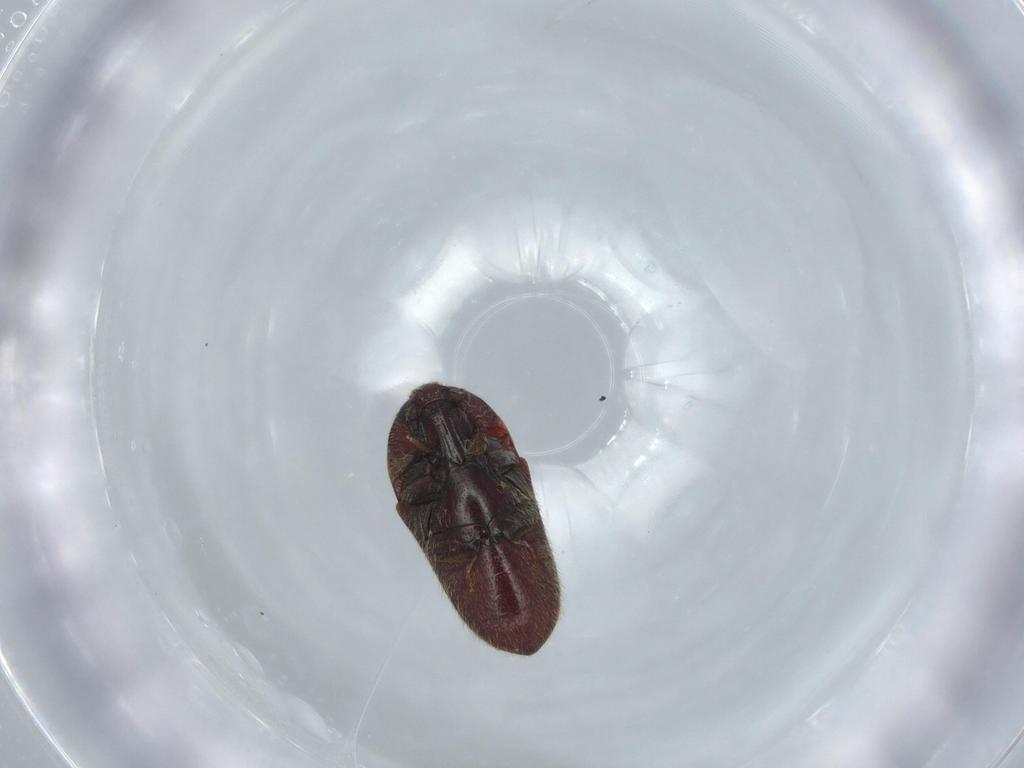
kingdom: Animalia
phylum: Arthropoda
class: Insecta
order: Coleoptera
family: Throscidae
